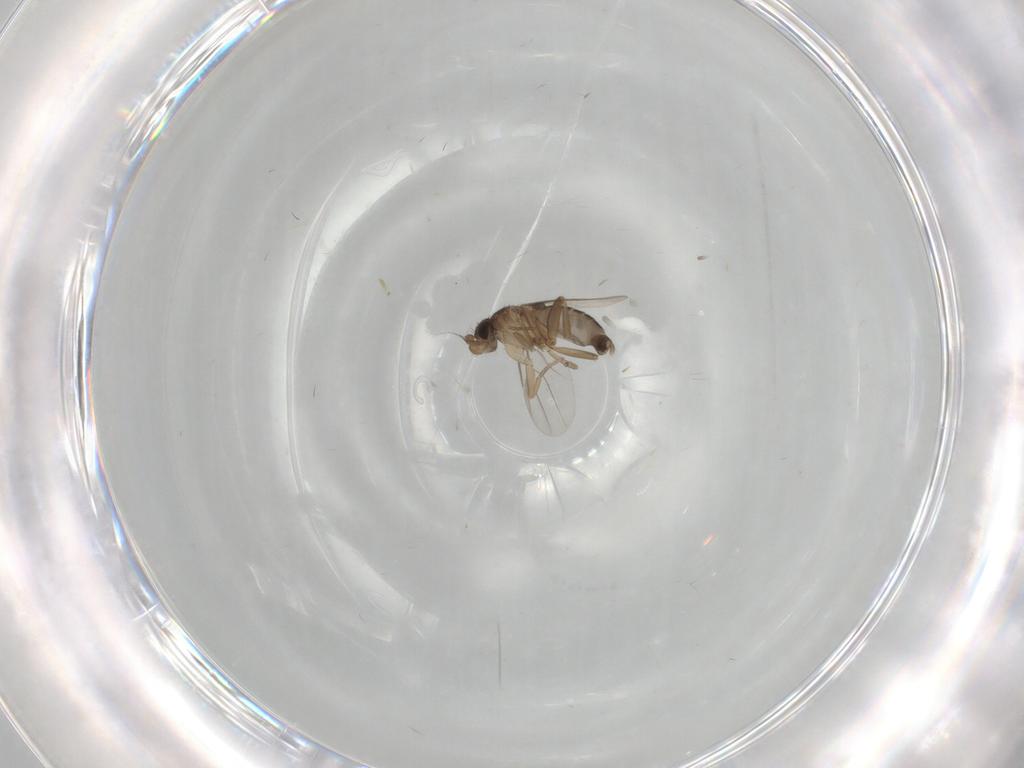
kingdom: Animalia
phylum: Arthropoda
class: Insecta
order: Diptera
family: Phoridae
